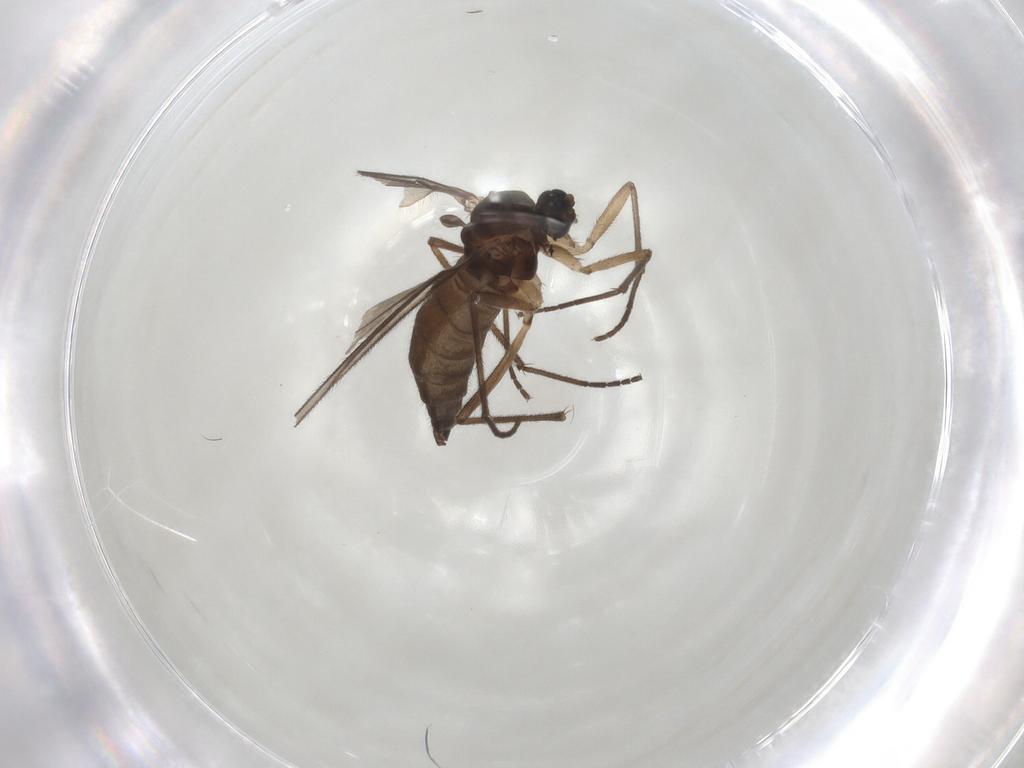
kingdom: Animalia
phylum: Arthropoda
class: Insecta
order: Diptera
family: Sciaridae
